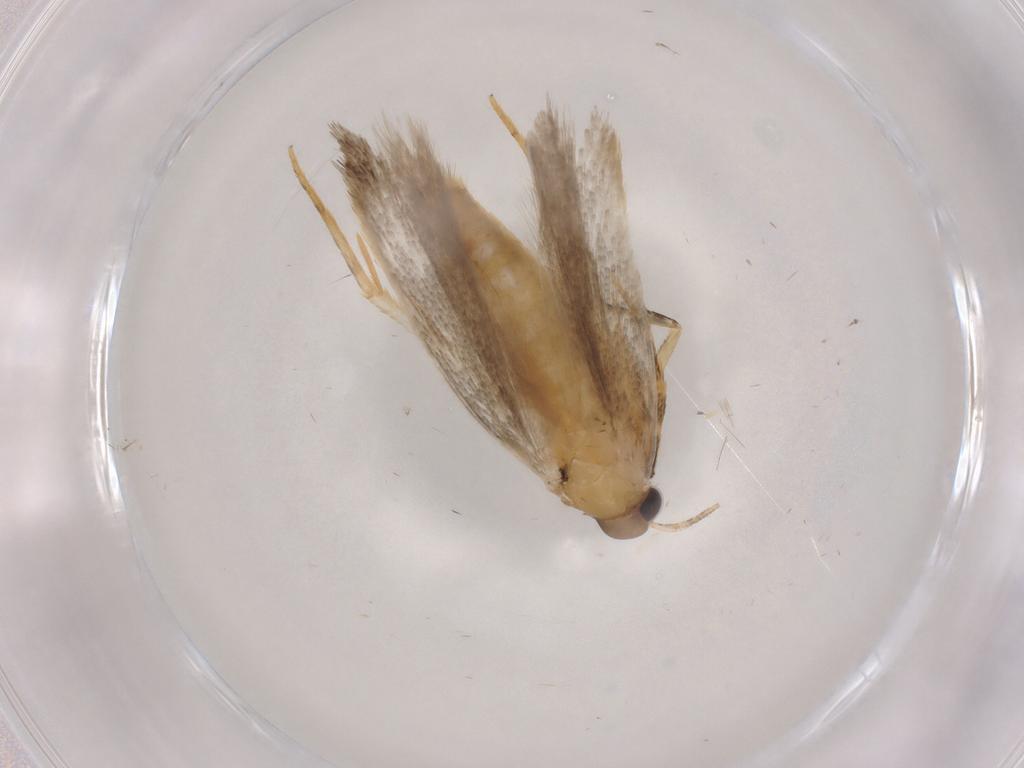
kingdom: Animalia
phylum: Arthropoda
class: Insecta
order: Lepidoptera
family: Autostichidae
